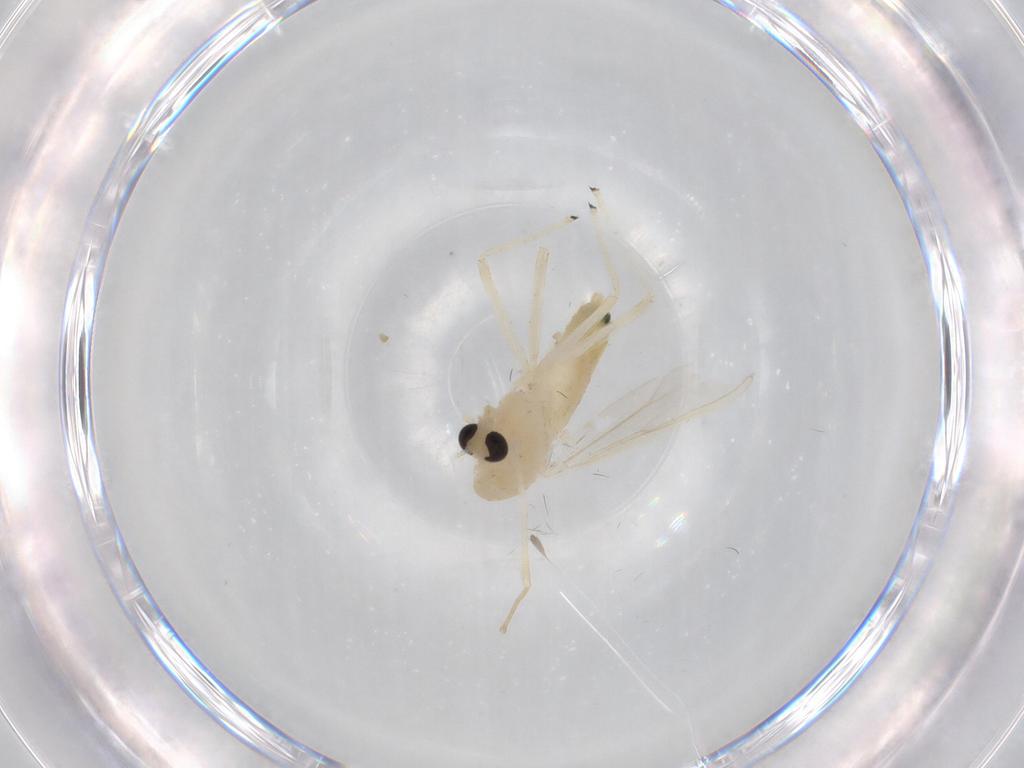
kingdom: Animalia
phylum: Arthropoda
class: Insecta
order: Diptera
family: Chironomidae
